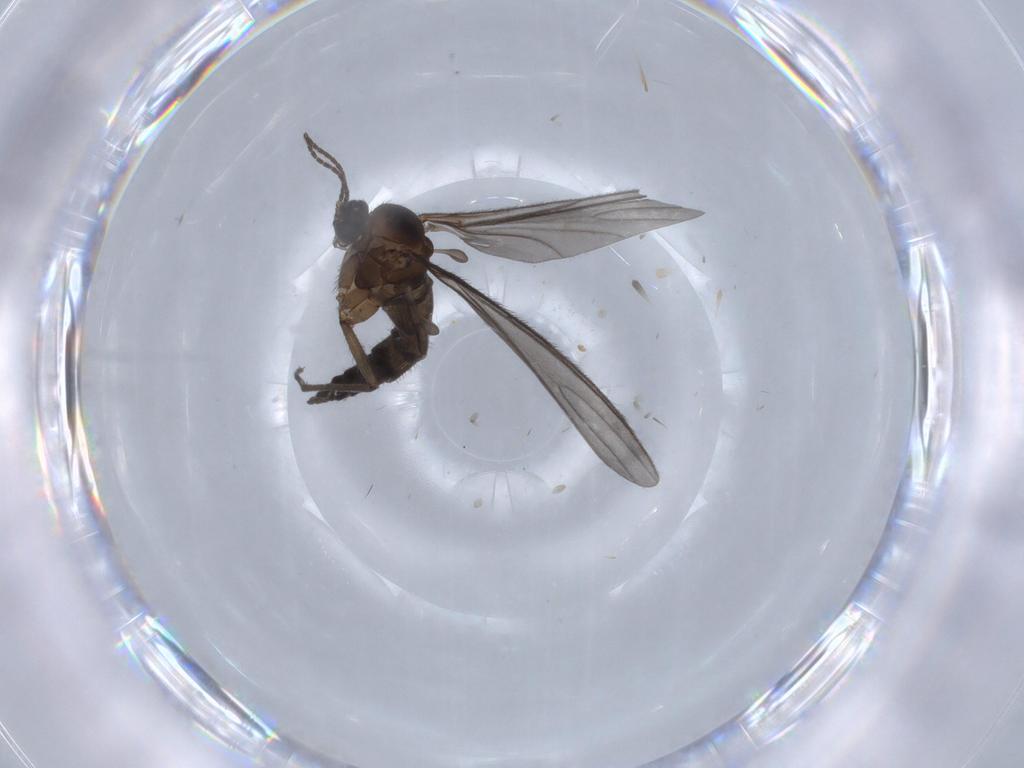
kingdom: Animalia
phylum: Arthropoda
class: Insecta
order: Diptera
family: Sciaridae
